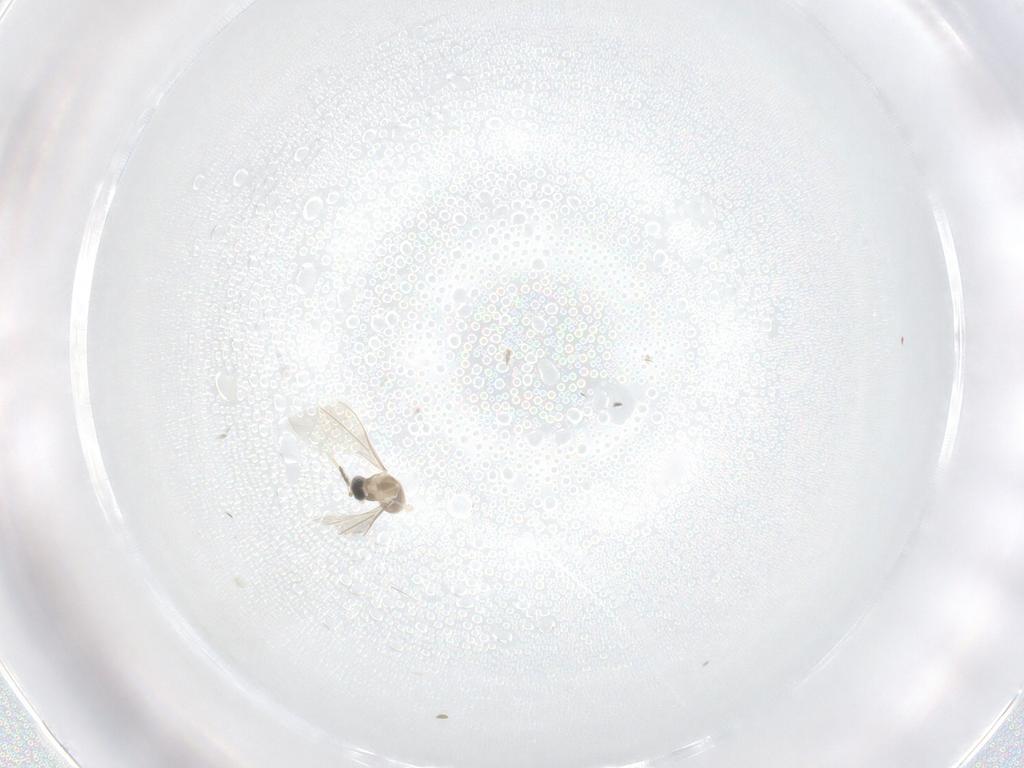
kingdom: Animalia
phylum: Arthropoda
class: Insecta
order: Diptera
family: Cecidomyiidae
